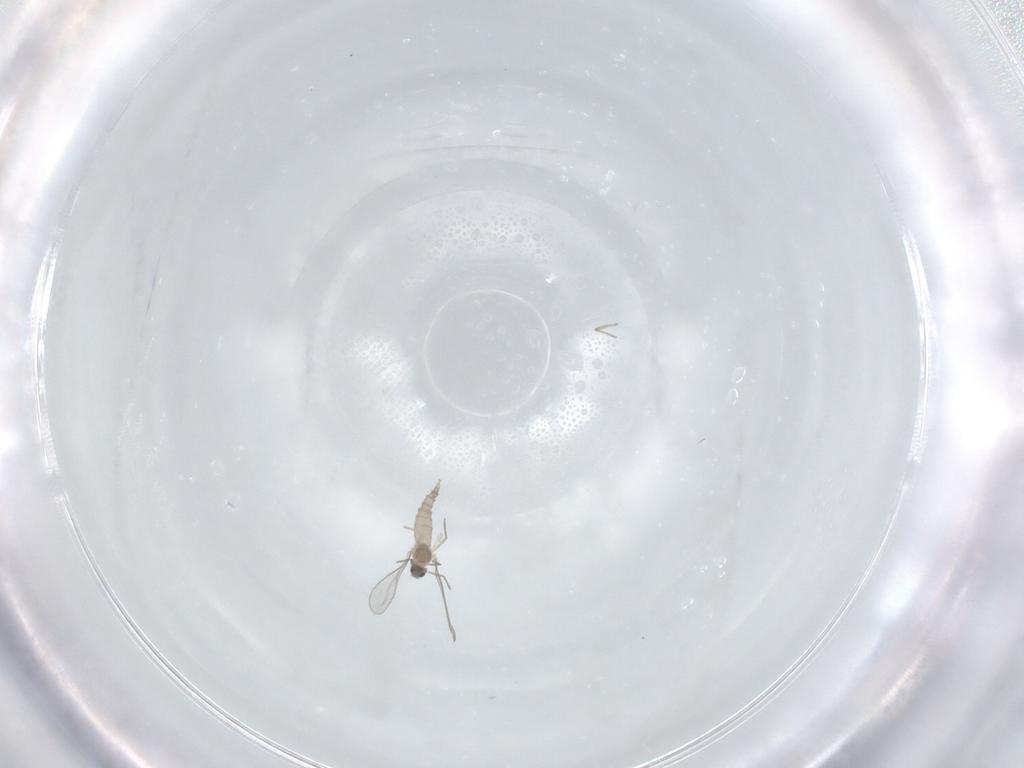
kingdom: Animalia
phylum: Arthropoda
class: Insecta
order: Diptera
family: Cecidomyiidae
